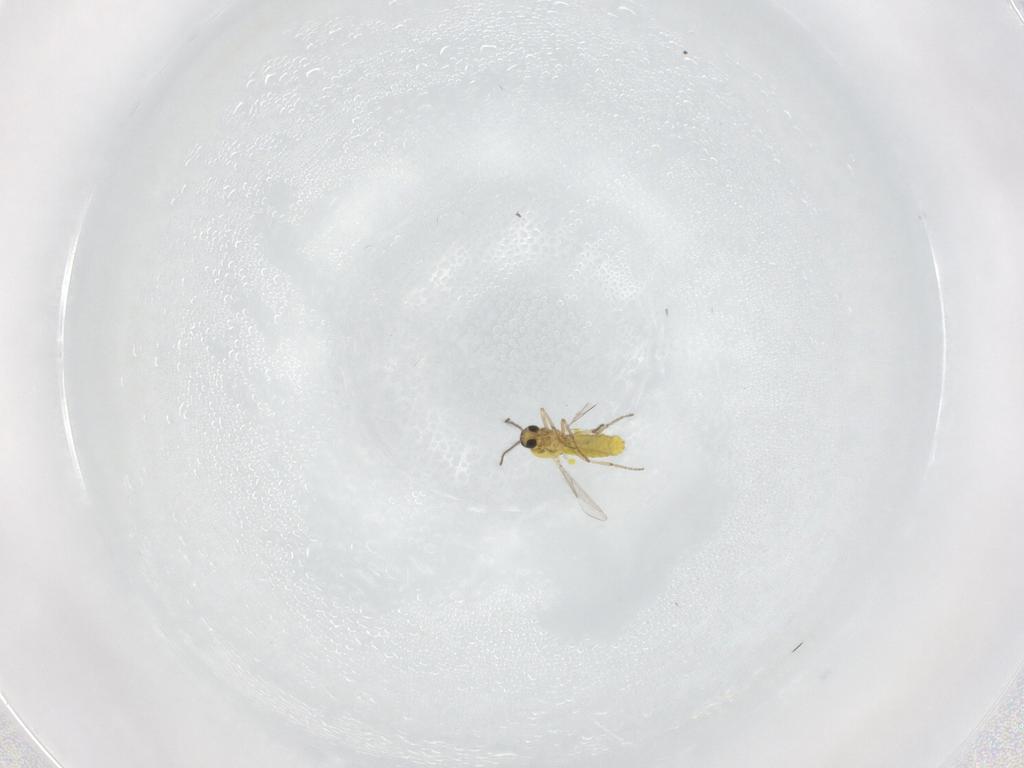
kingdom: Animalia
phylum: Arthropoda
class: Insecta
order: Diptera
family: Ceratopogonidae
